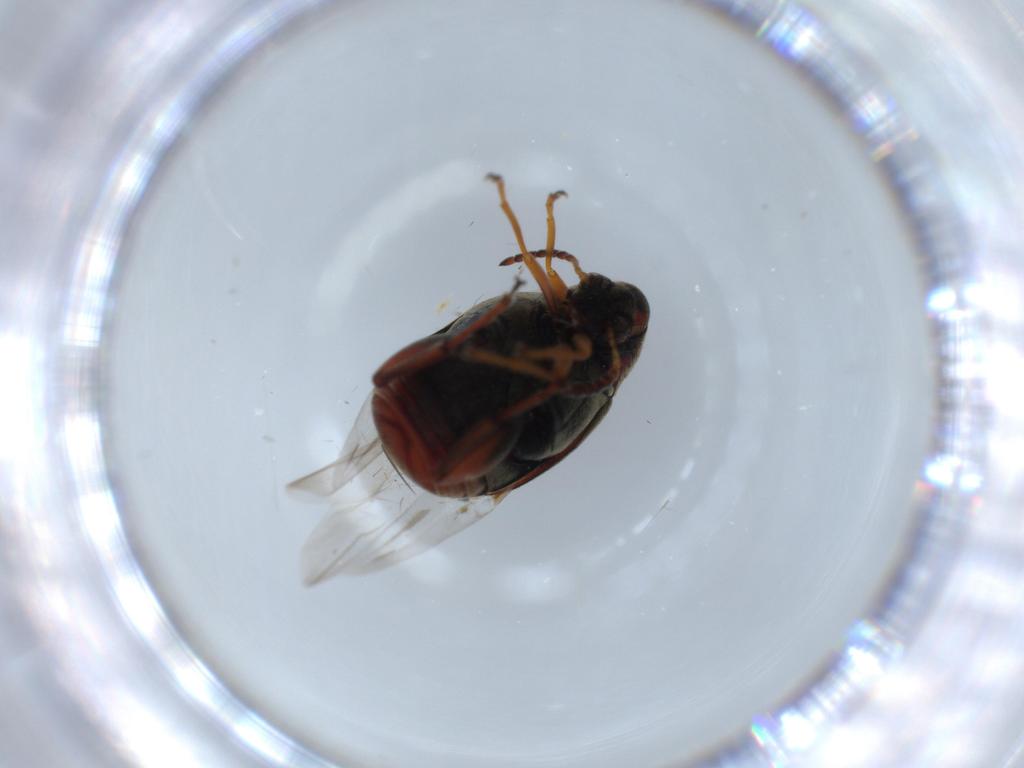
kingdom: Animalia
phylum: Arthropoda
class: Insecta
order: Coleoptera
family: Chrysomelidae
